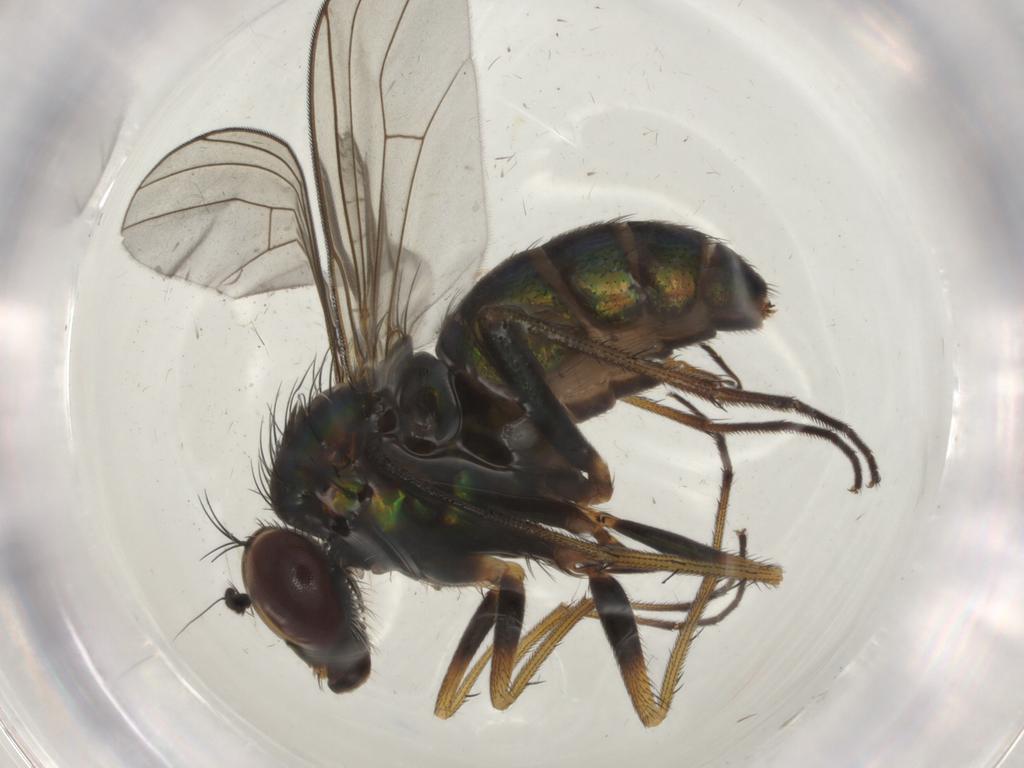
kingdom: Animalia
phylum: Arthropoda
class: Insecta
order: Diptera
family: Dolichopodidae
